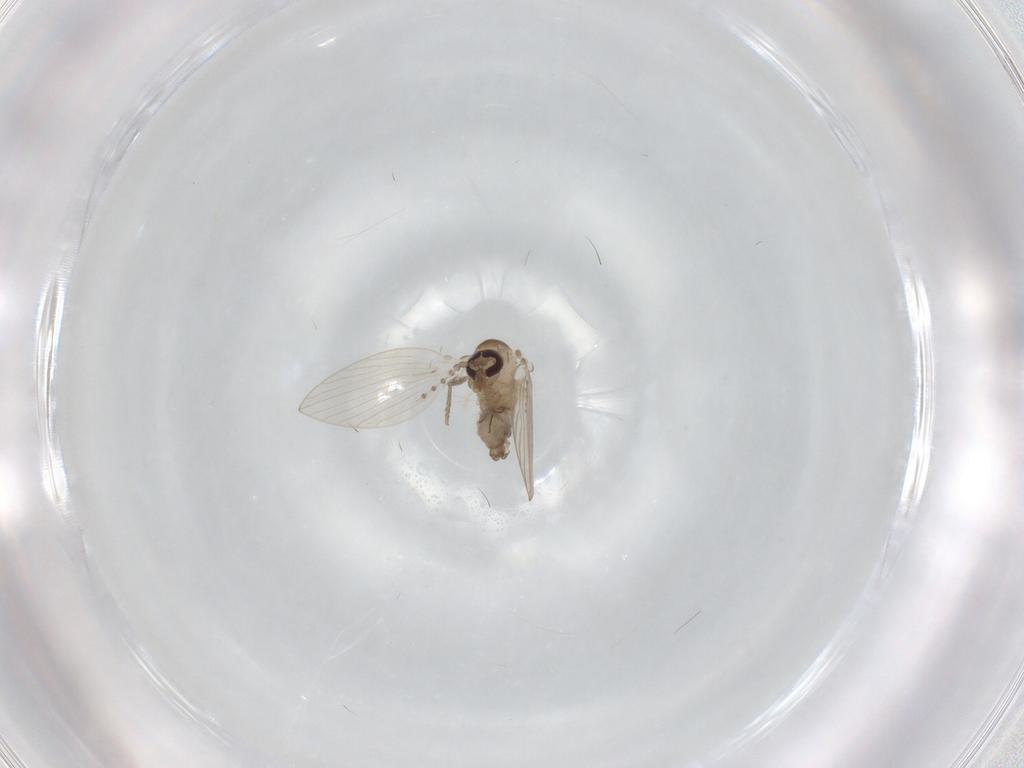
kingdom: Animalia
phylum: Arthropoda
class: Insecta
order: Diptera
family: Psychodidae
